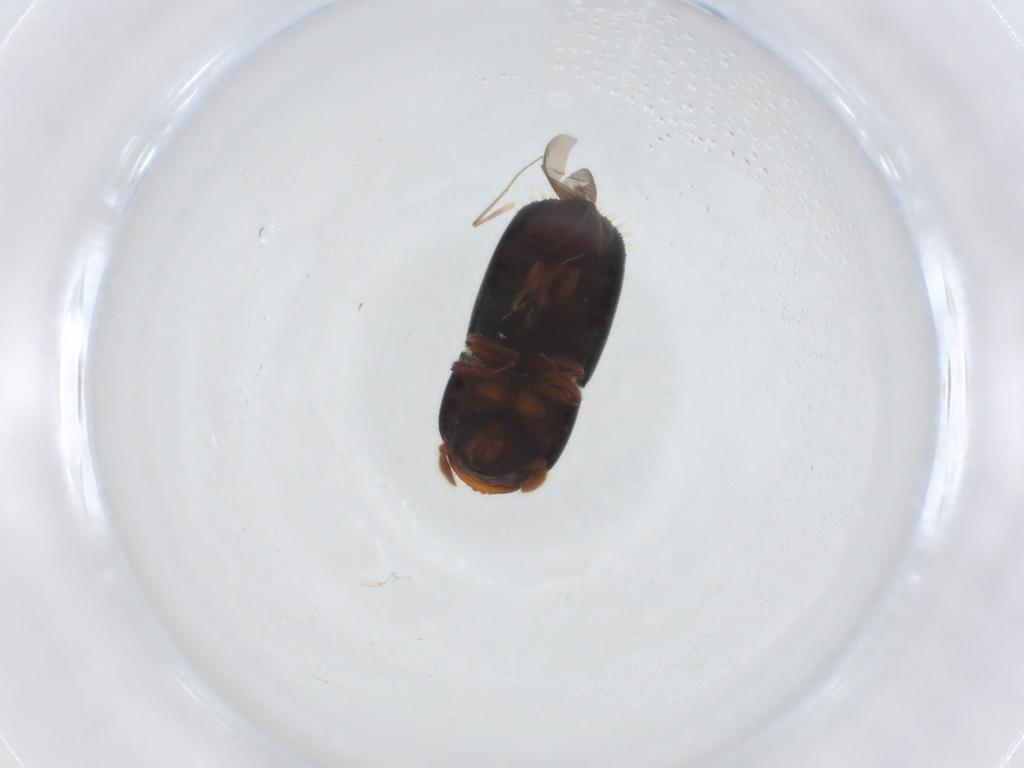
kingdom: Animalia
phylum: Arthropoda
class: Insecta
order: Coleoptera
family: Curculionidae
